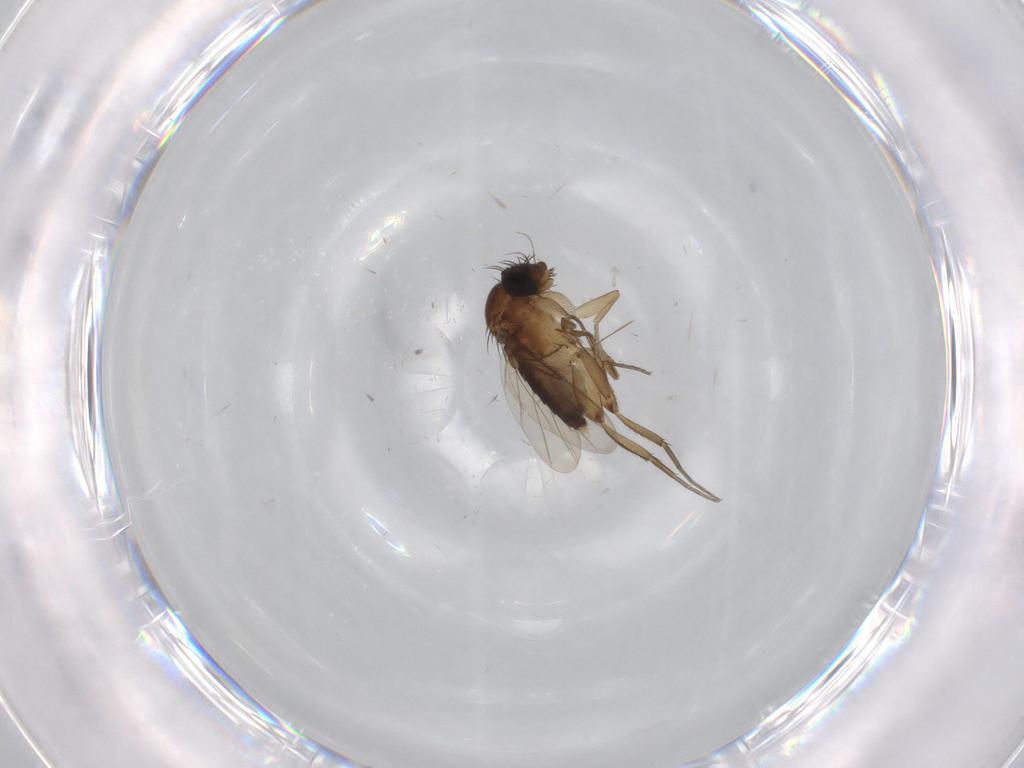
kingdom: Animalia
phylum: Arthropoda
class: Insecta
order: Diptera
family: Phoridae
